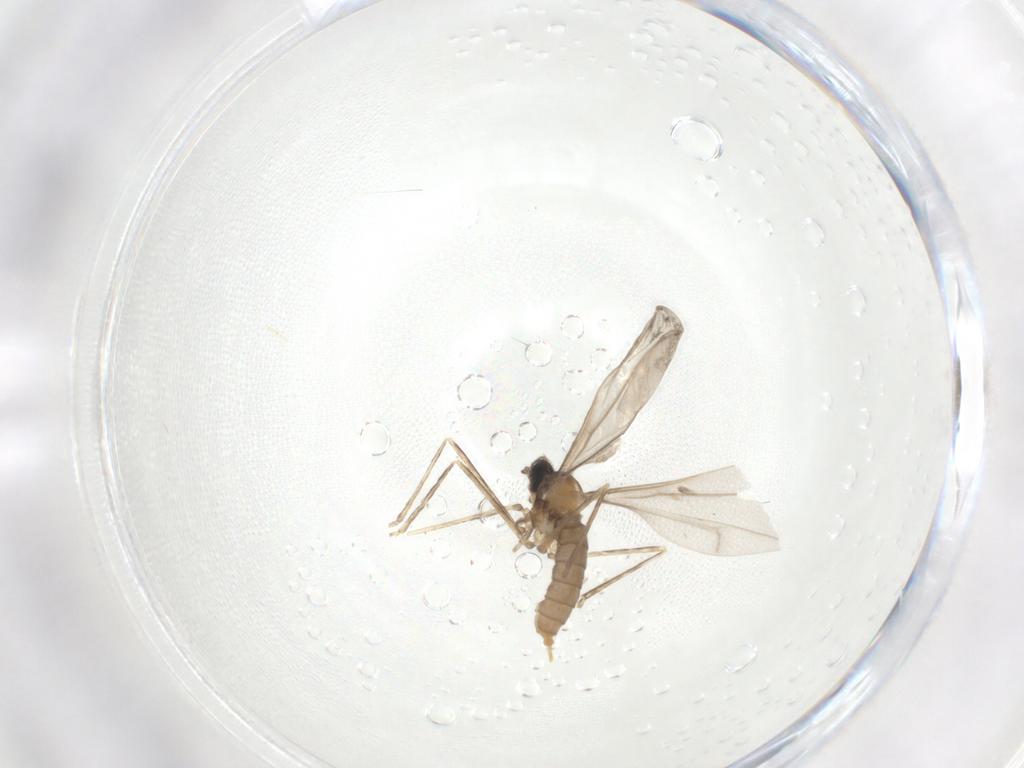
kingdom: Animalia
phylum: Arthropoda
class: Insecta
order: Diptera
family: Cecidomyiidae
